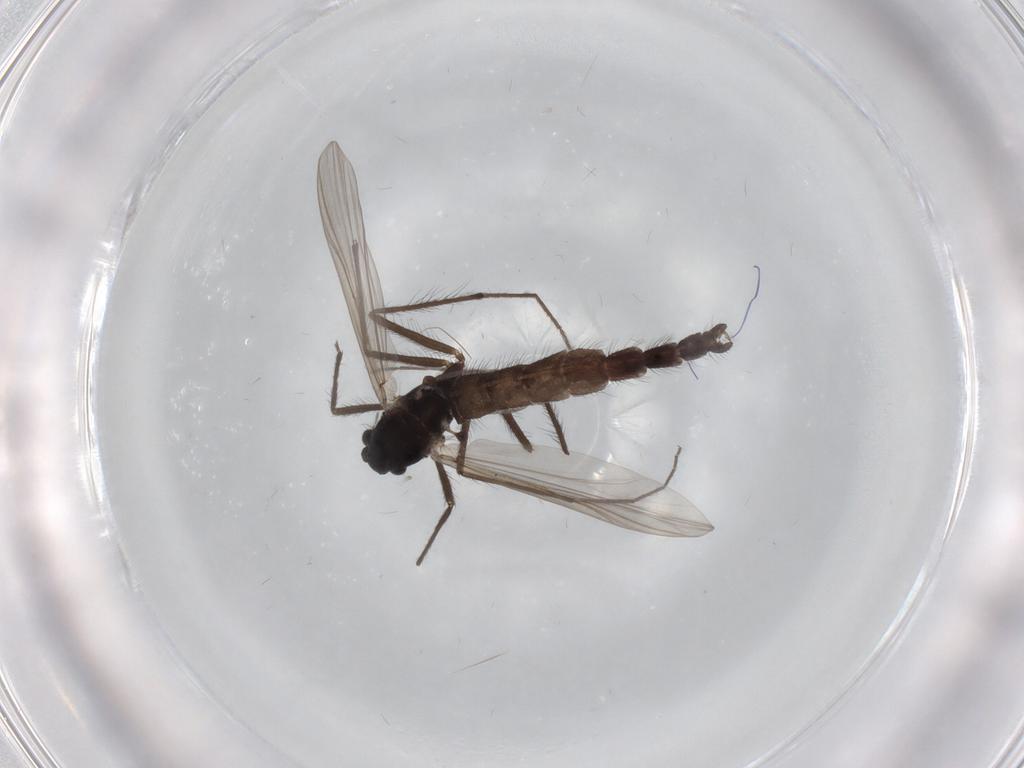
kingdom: Animalia
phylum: Arthropoda
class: Insecta
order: Diptera
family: Chironomidae
